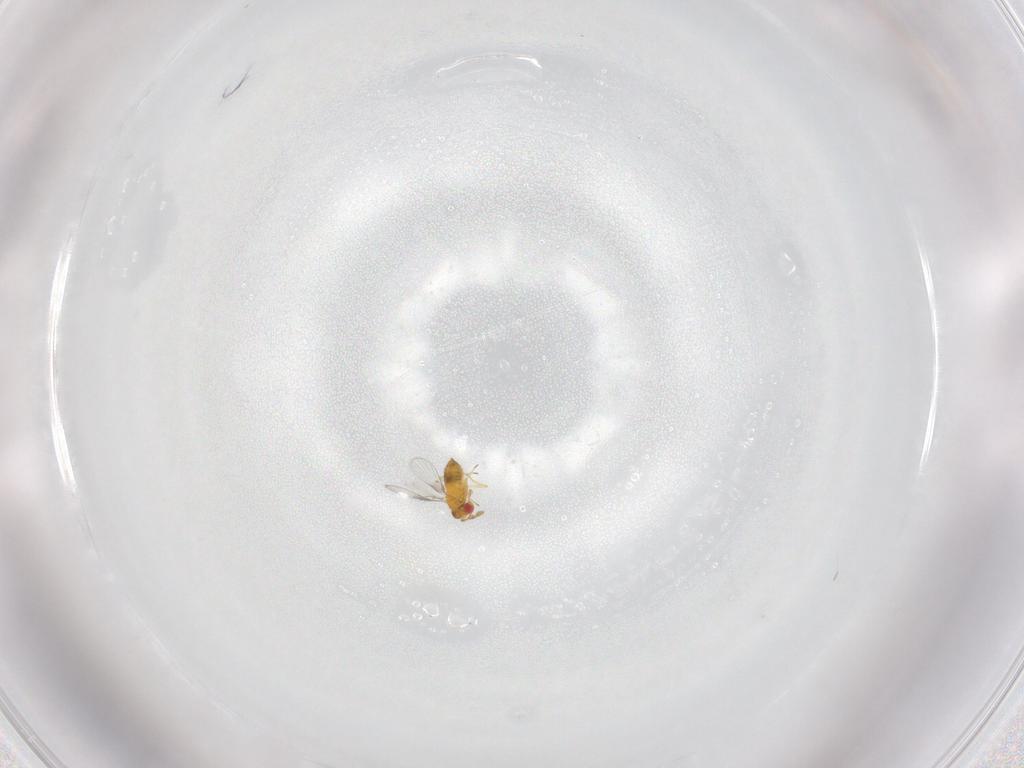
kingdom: Animalia
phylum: Arthropoda
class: Insecta
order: Hymenoptera
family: Trichogrammatidae
